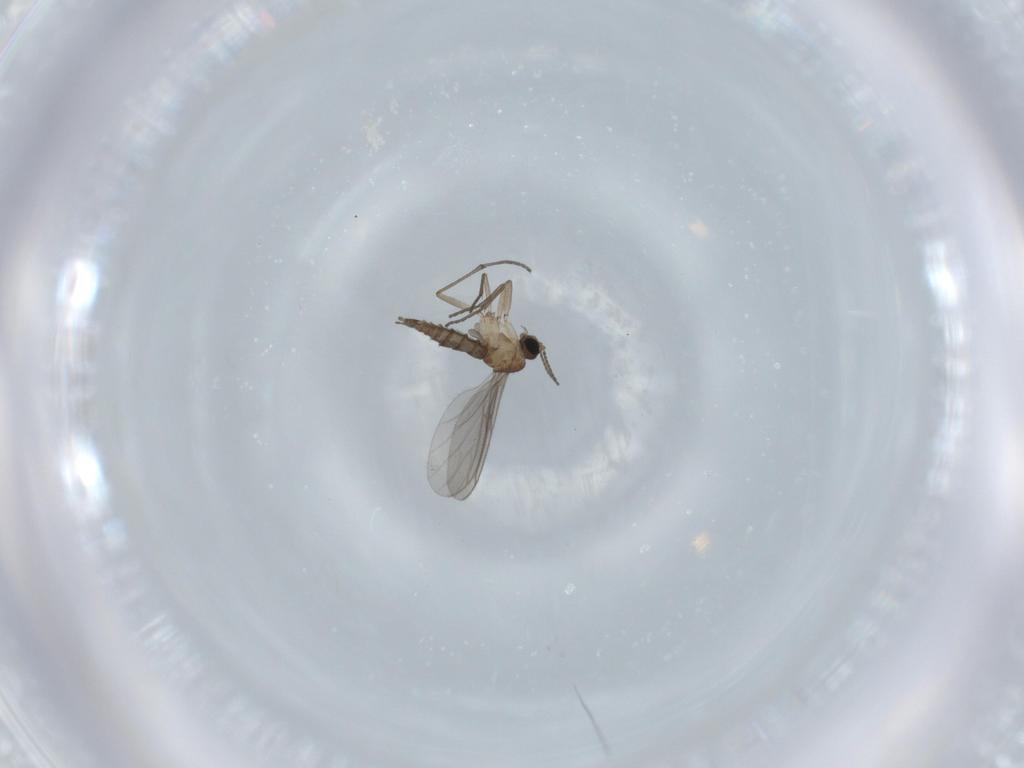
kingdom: Animalia
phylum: Arthropoda
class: Insecta
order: Diptera
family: Sciaridae
